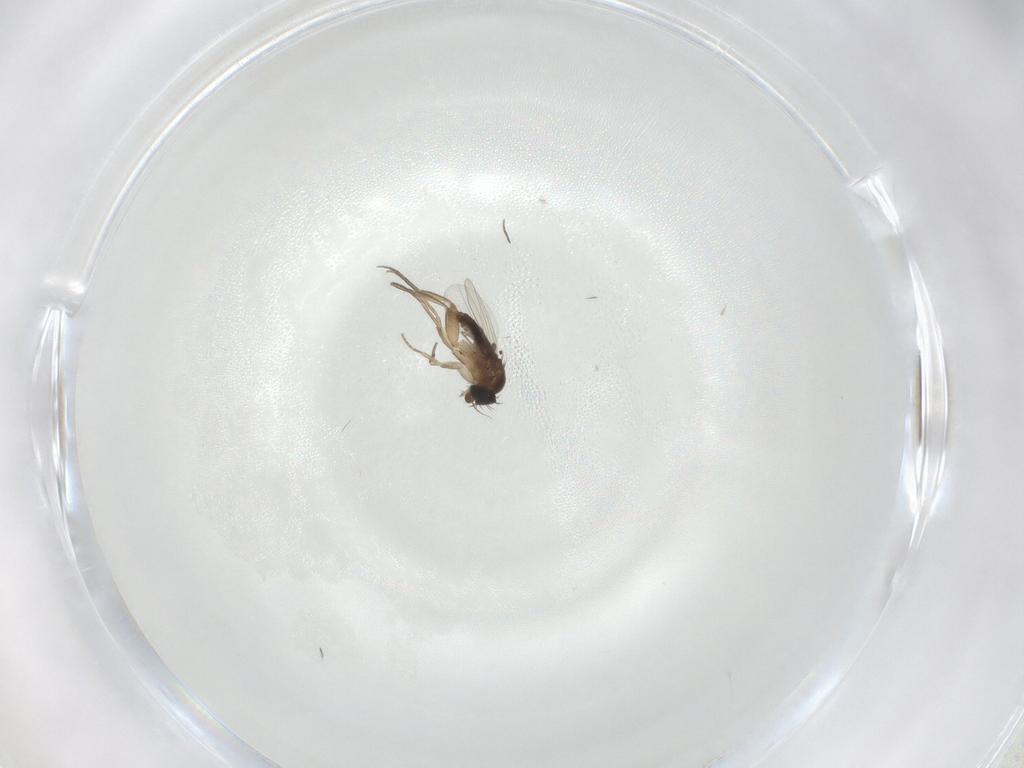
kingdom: Animalia
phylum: Arthropoda
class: Insecta
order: Diptera
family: Phoridae
